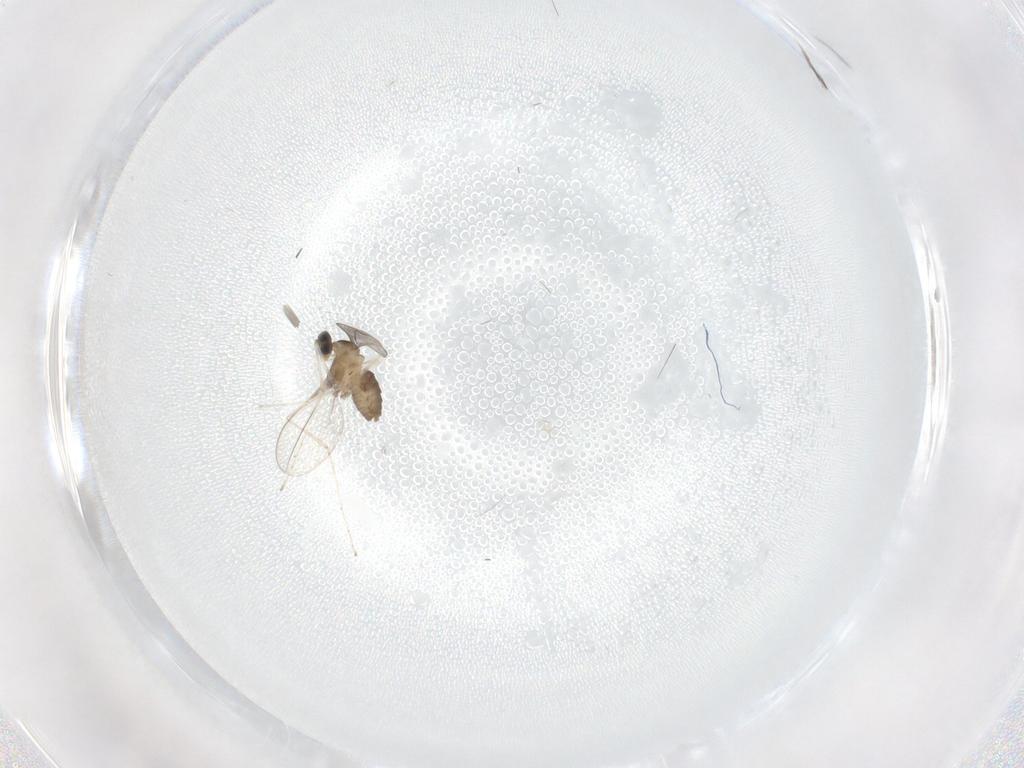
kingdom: Animalia
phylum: Arthropoda
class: Insecta
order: Diptera
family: Cecidomyiidae
